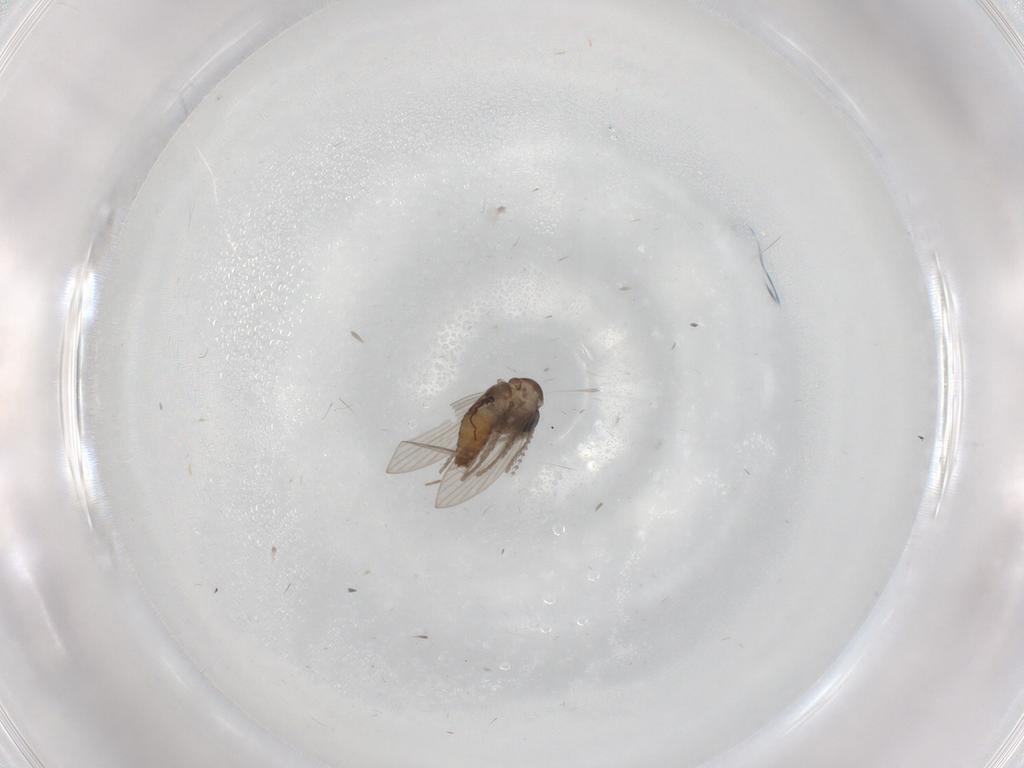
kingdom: Animalia
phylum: Arthropoda
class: Insecta
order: Diptera
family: Psychodidae
